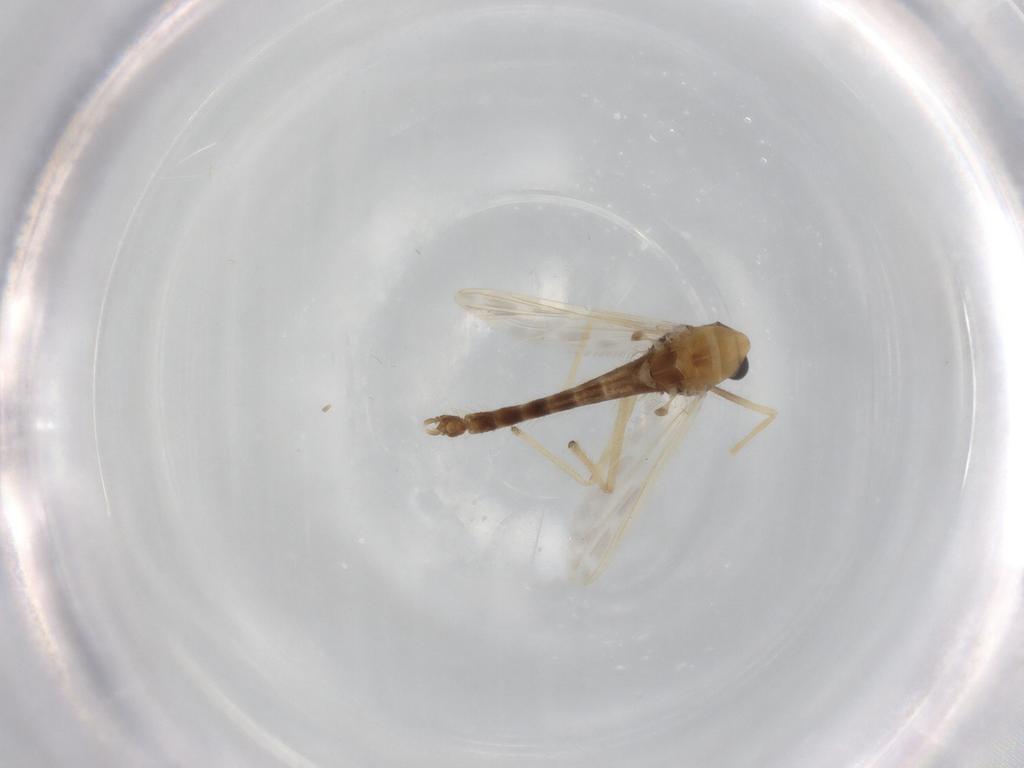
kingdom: Animalia
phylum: Arthropoda
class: Insecta
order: Diptera
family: Chironomidae
